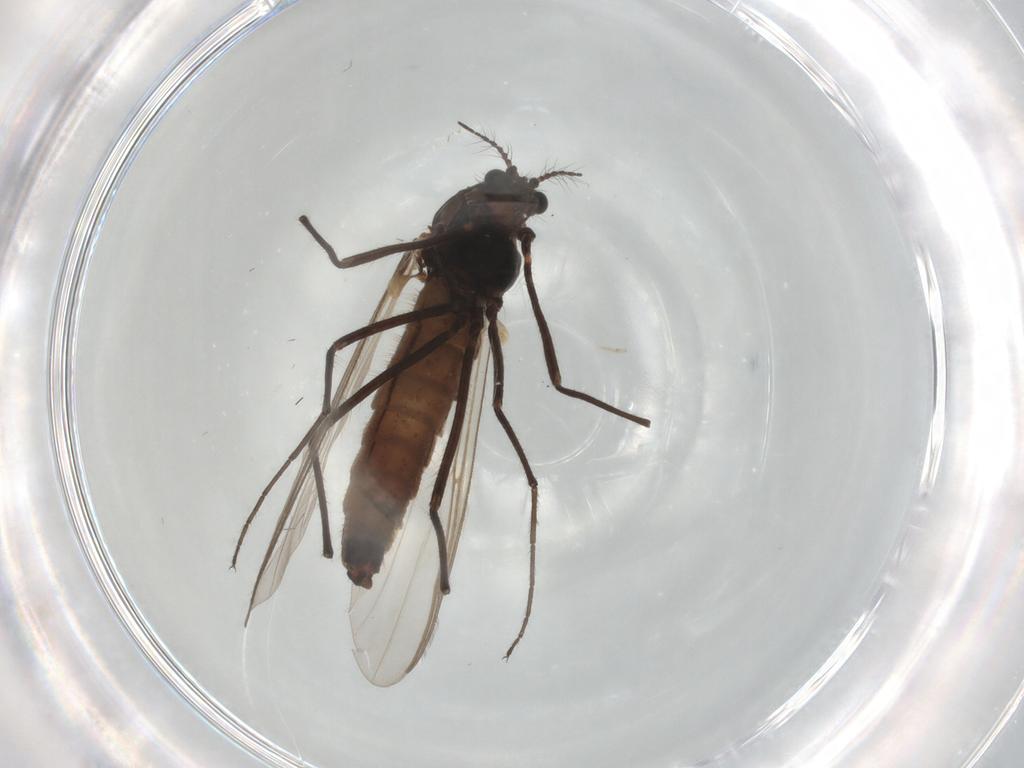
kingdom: Animalia
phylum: Arthropoda
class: Insecta
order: Diptera
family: Chironomidae
